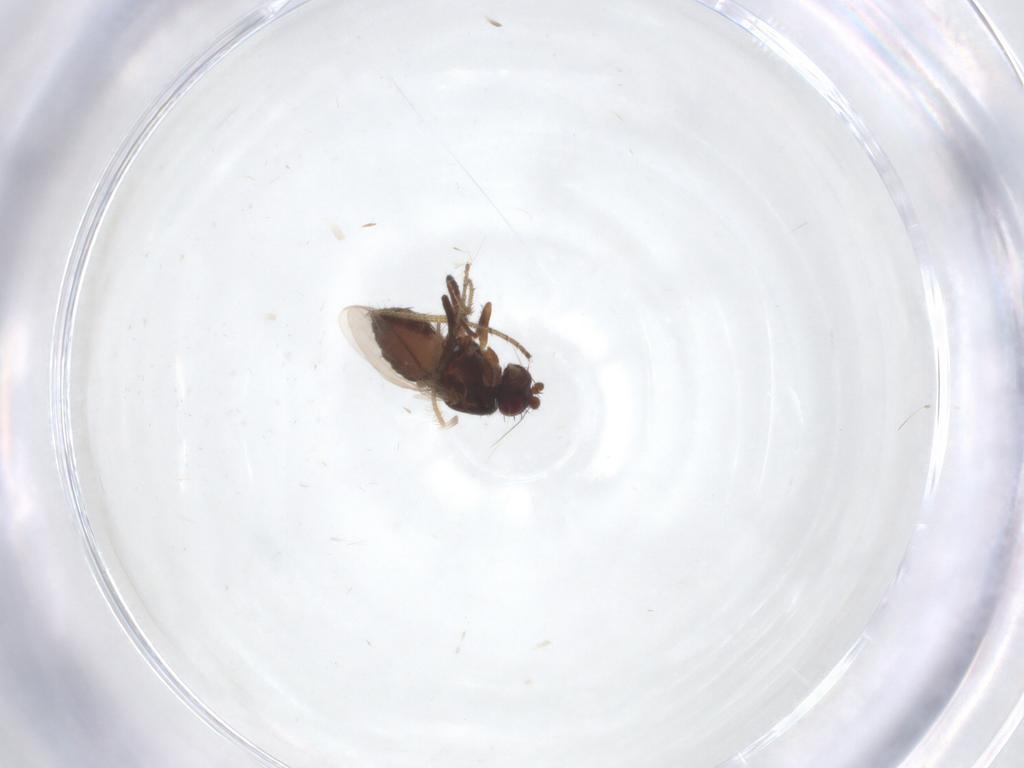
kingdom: Animalia
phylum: Arthropoda
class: Insecta
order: Diptera
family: Sphaeroceridae
